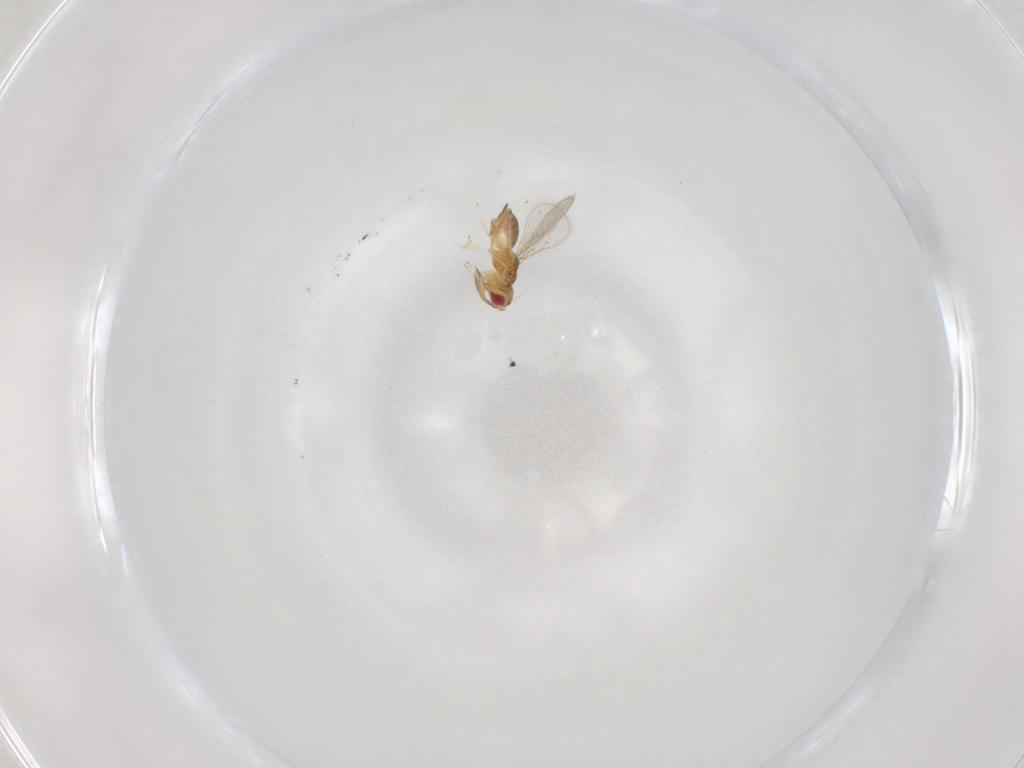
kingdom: Animalia
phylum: Arthropoda
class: Insecta
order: Hymenoptera
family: Eulophidae
